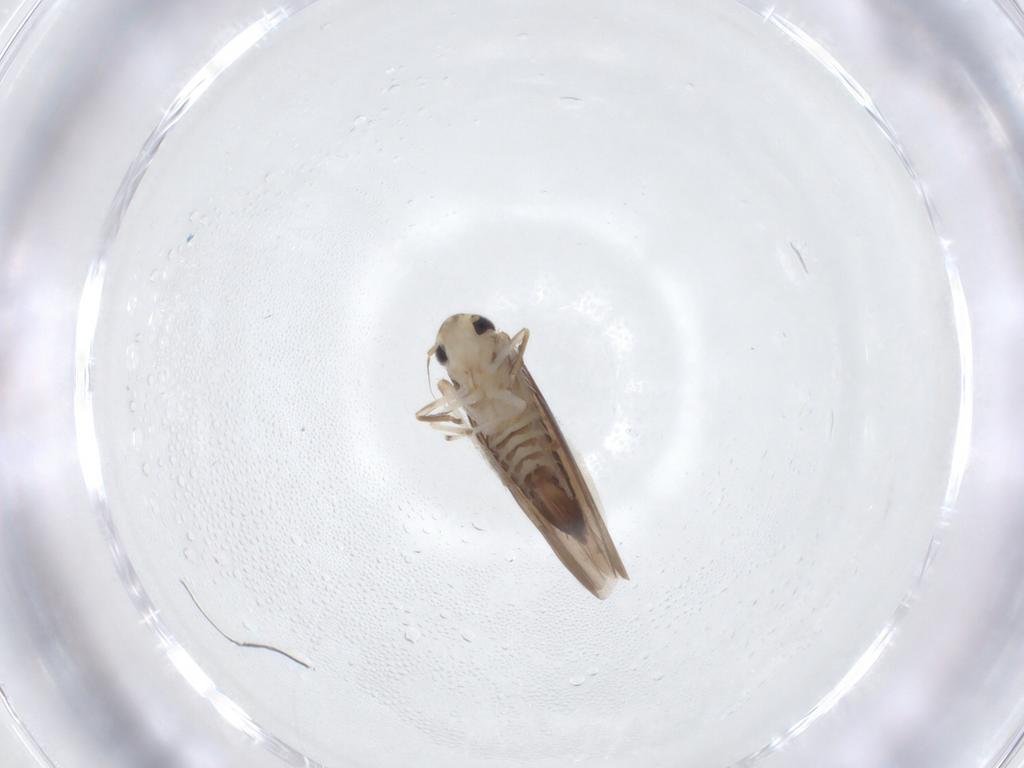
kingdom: Animalia
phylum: Arthropoda
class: Insecta
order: Hemiptera
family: Cicadellidae
